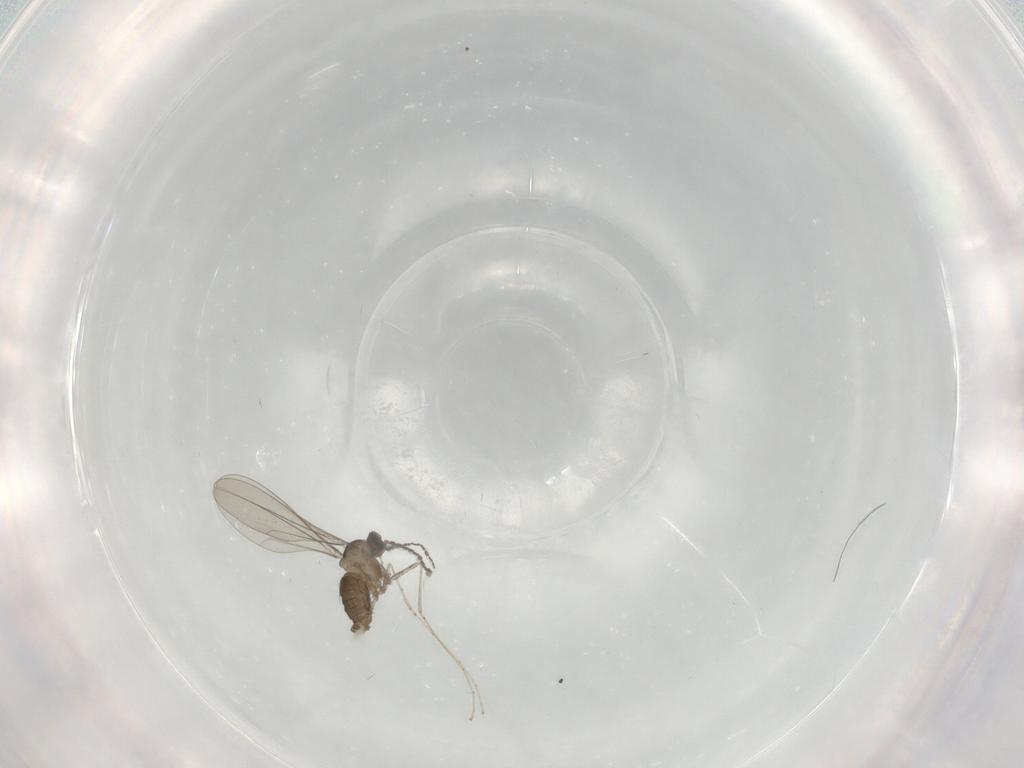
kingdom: Animalia
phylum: Arthropoda
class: Insecta
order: Diptera
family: Cecidomyiidae
